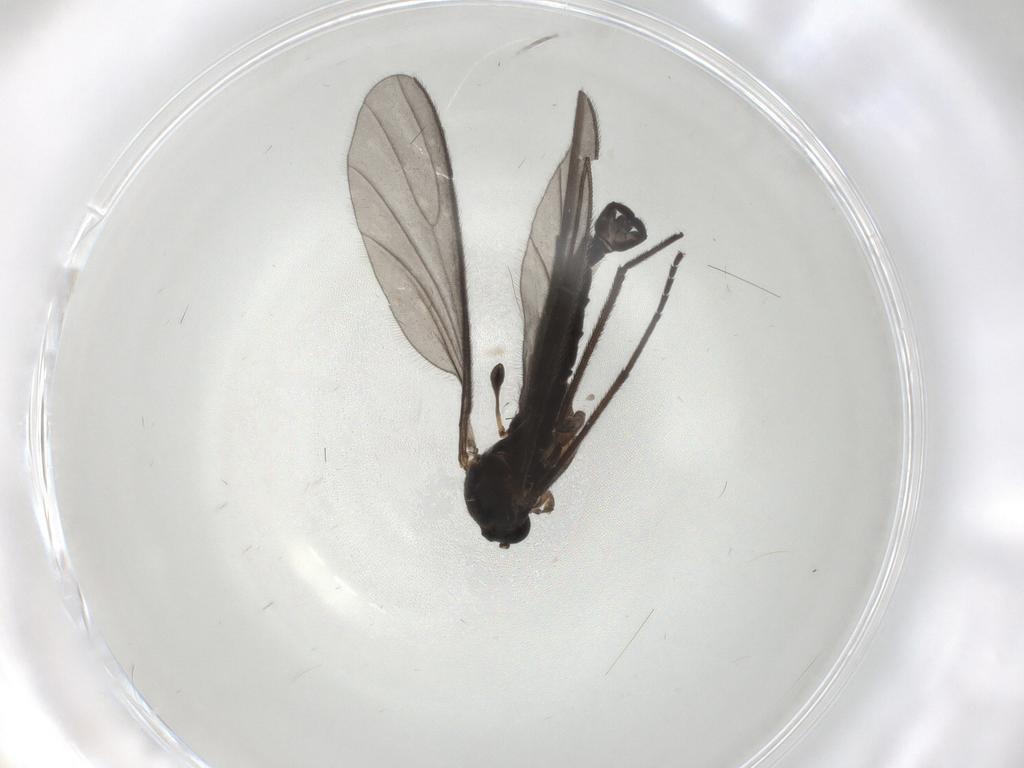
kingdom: Animalia
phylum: Arthropoda
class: Insecta
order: Diptera
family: Sciaridae
